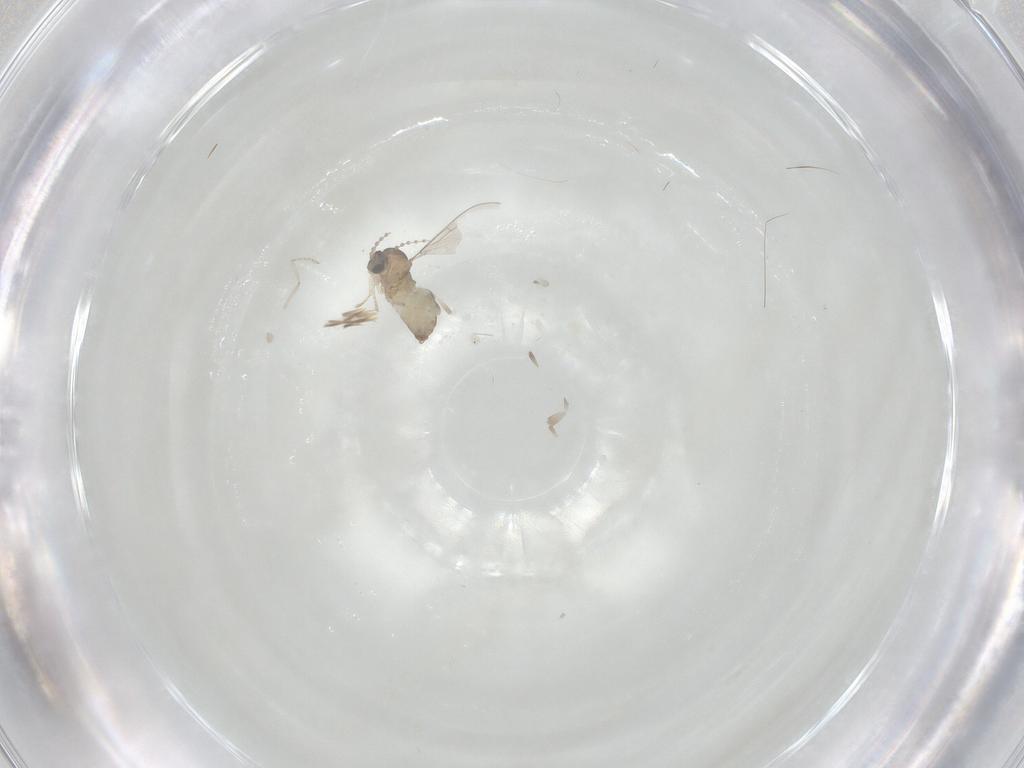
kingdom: Animalia
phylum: Arthropoda
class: Insecta
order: Diptera
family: Cecidomyiidae
